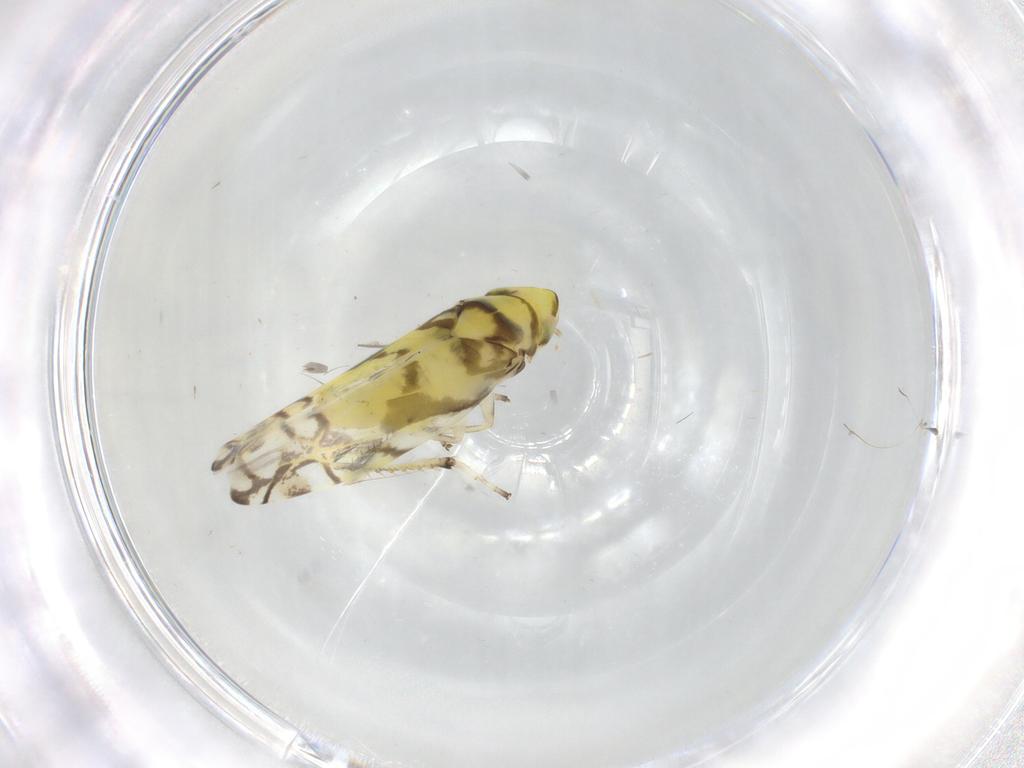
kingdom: Animalia
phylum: Arthropoda
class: Insecta
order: Hemiptera
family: Cicadellidae
